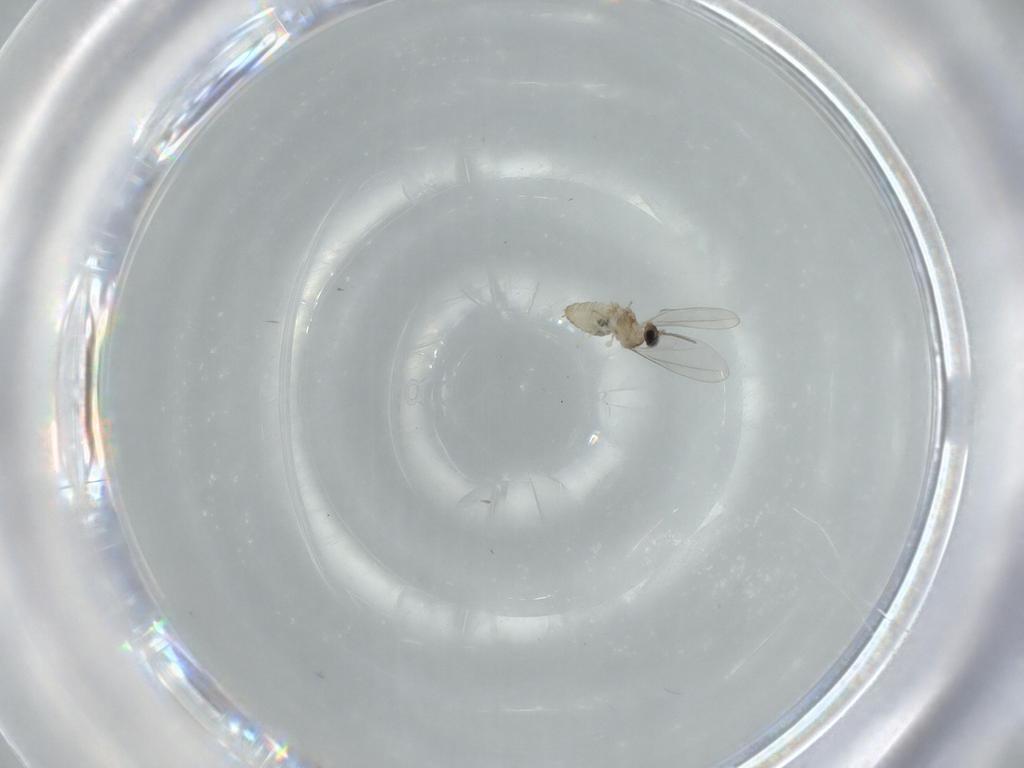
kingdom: Animalia
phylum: Arthropoda
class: Insecta
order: Diptera
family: Cecidomyiidae
